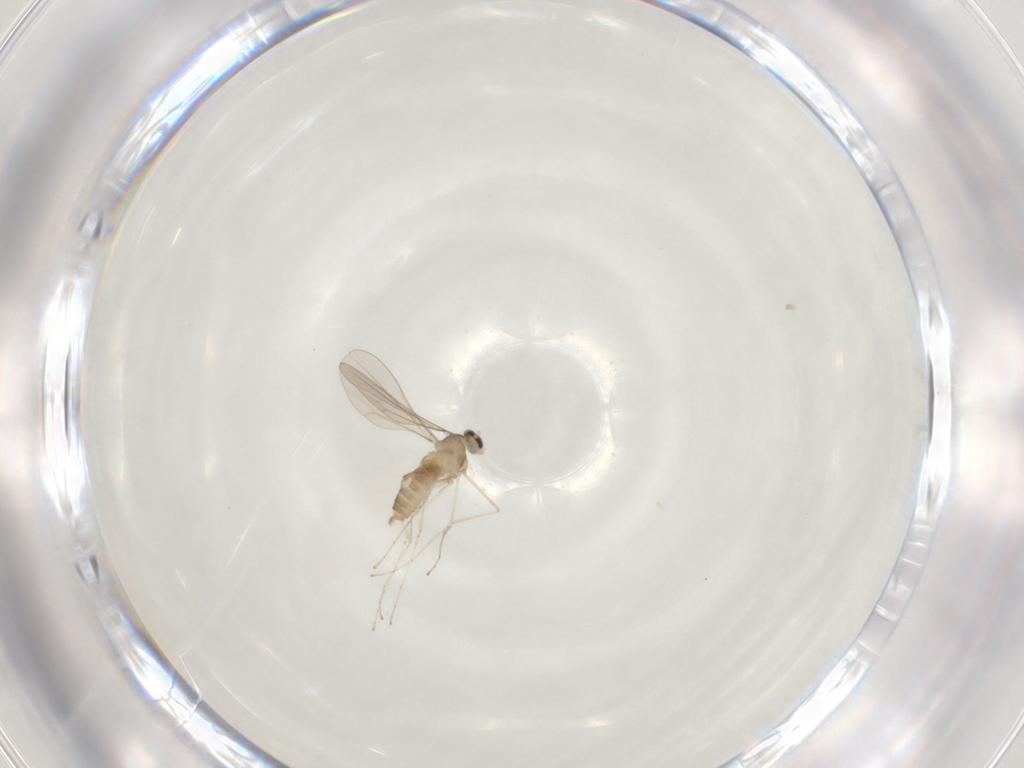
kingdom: Animalia
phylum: Arthropoda
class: Insecta
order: Diptera
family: Cecidomyiidae
